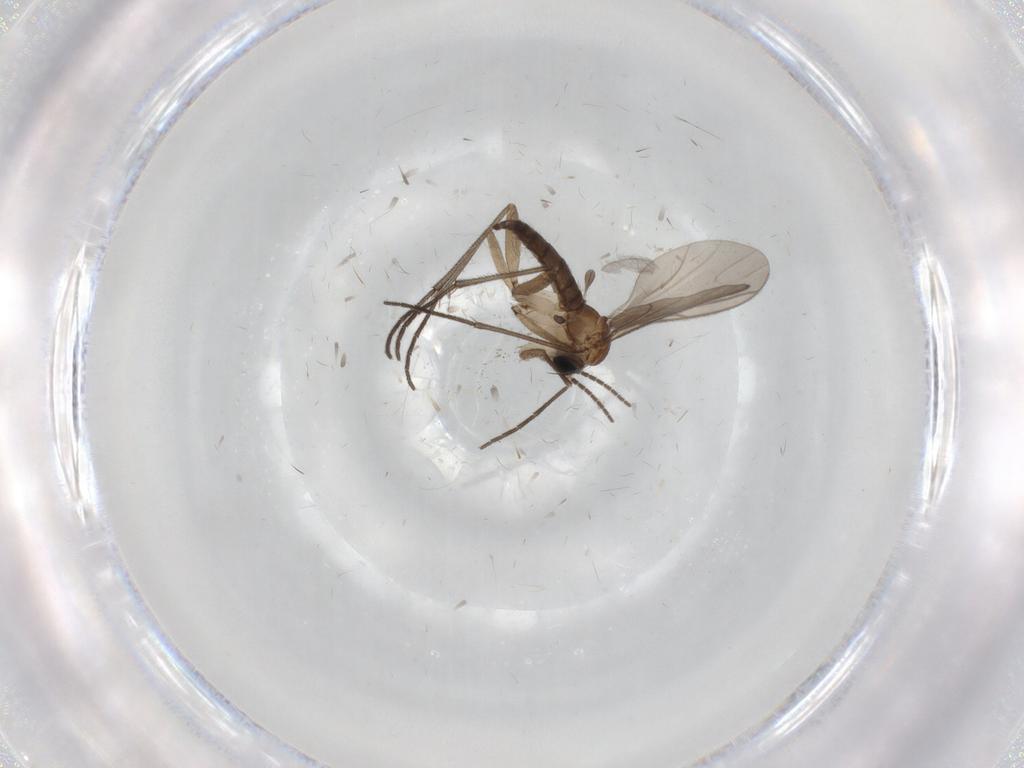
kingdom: Animalia
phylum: Arthropoda
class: Insecta
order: Diptera
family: Sciaridae
